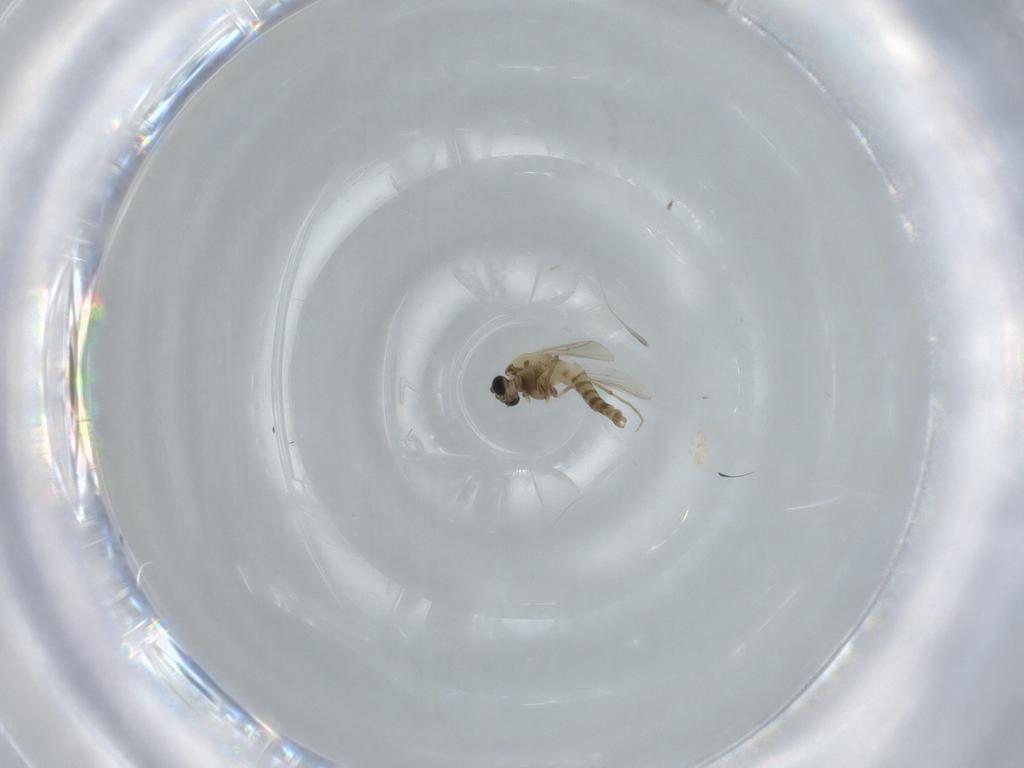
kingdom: Animalia
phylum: Arthropoda
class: Insecta
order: Diptera
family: Chironomidae
